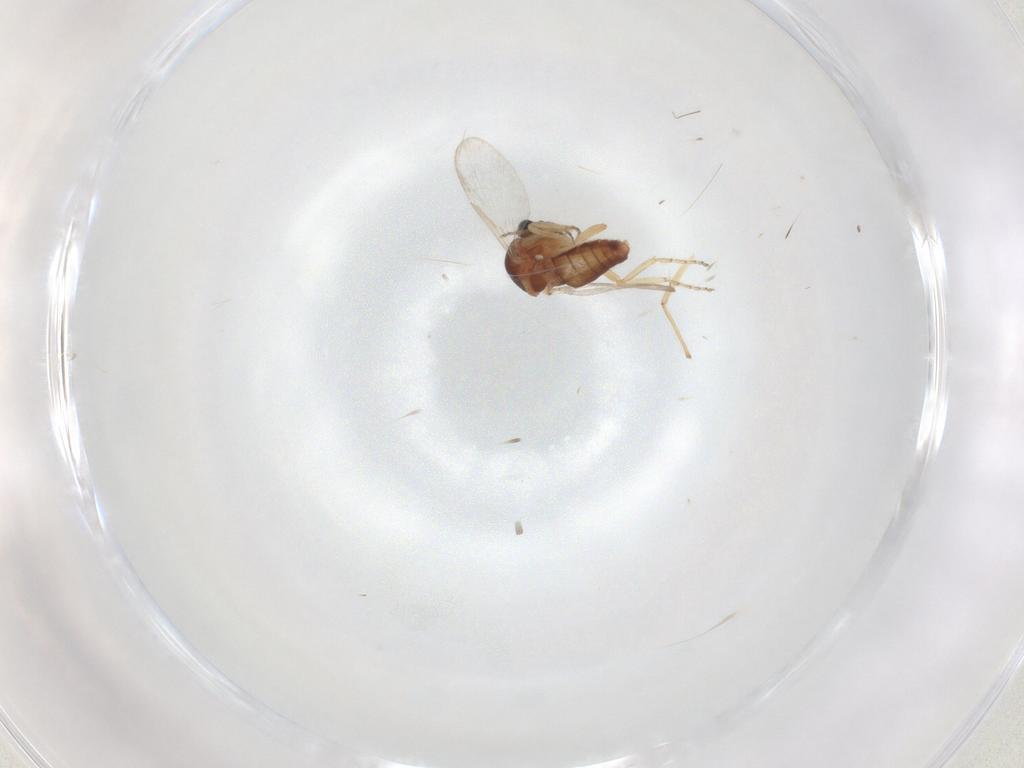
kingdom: Animalia
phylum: Arthropoda
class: Insecta
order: Diptera
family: Ceratopogonidae
